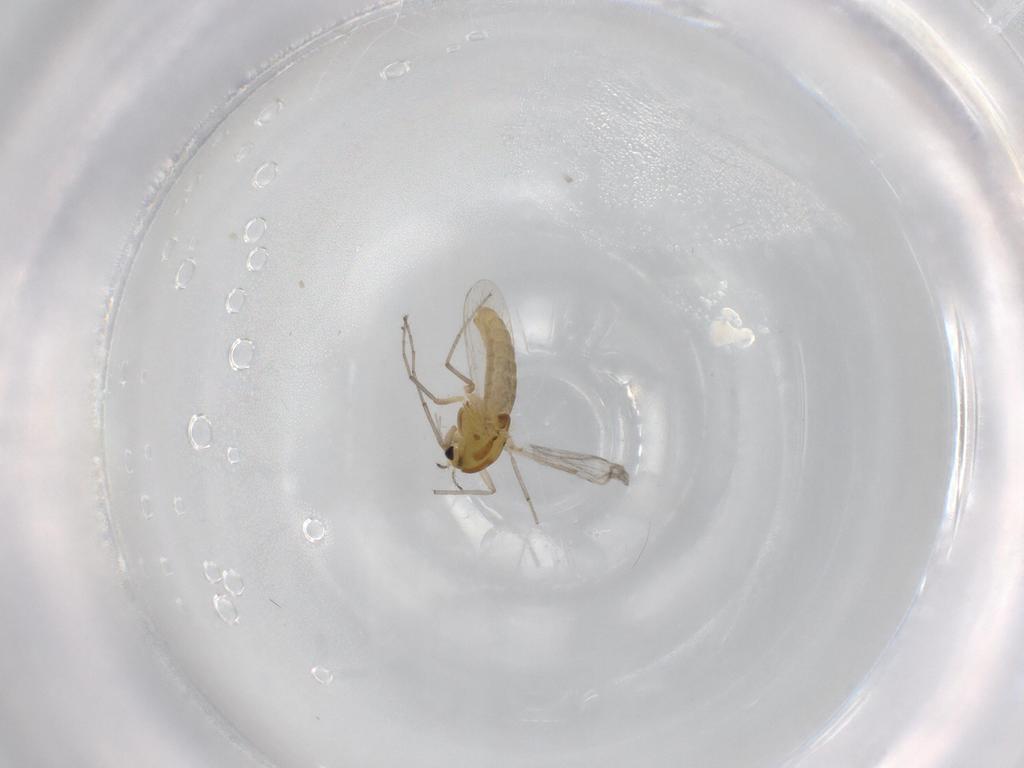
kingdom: Animalia
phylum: Arthropoda
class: Insecta
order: Diptera
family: Chironomidae
